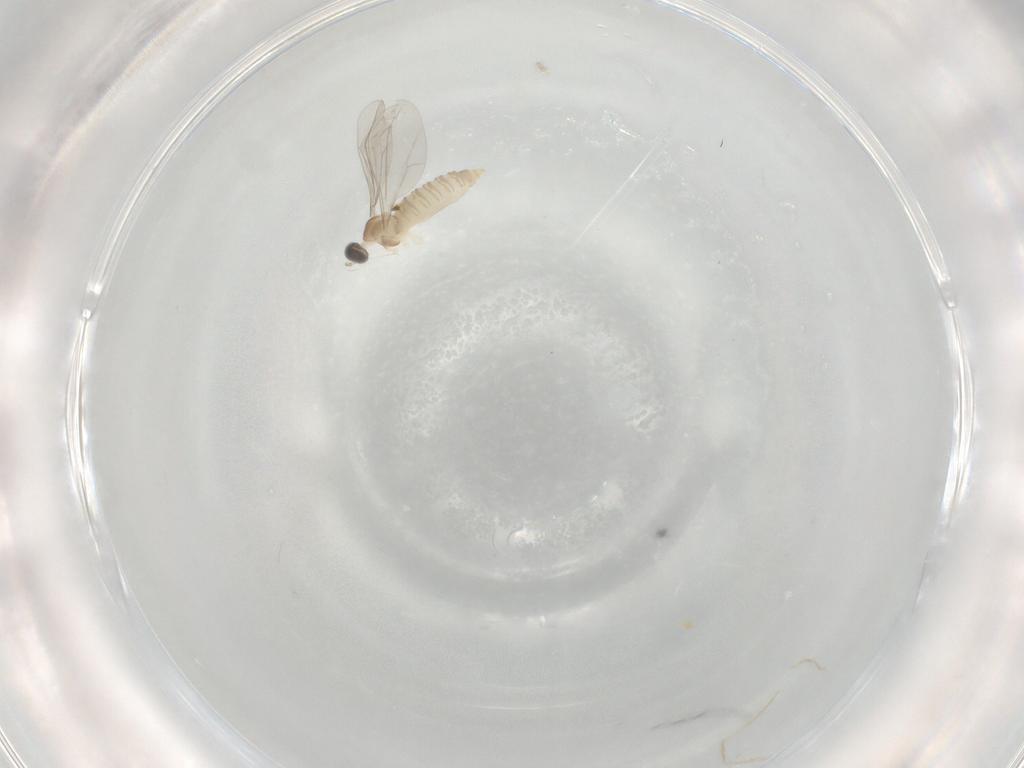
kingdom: Animalia
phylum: Arthropoda
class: Insecta
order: Diptera
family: Cecidomyiidae
